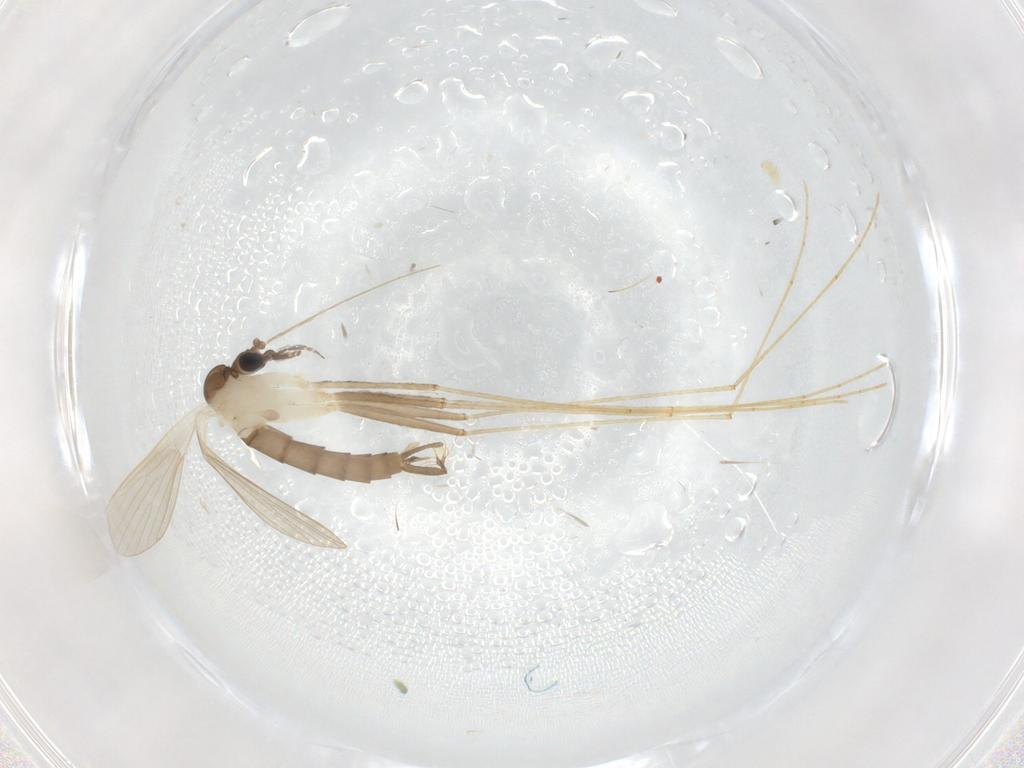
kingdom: Animalia
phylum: Arthropoda
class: Insecta
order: Diptera
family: Psychodidae
